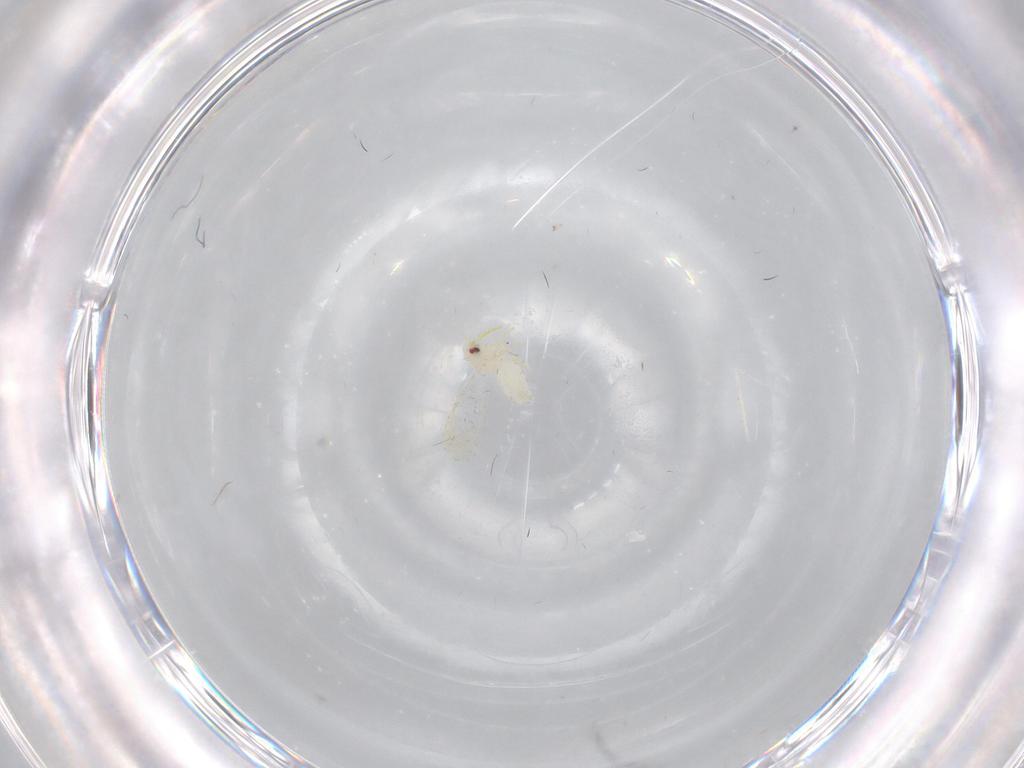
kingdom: Animalia
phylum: Arthropoda
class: Insecta
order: Hemiptera
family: Aleyrodidae
